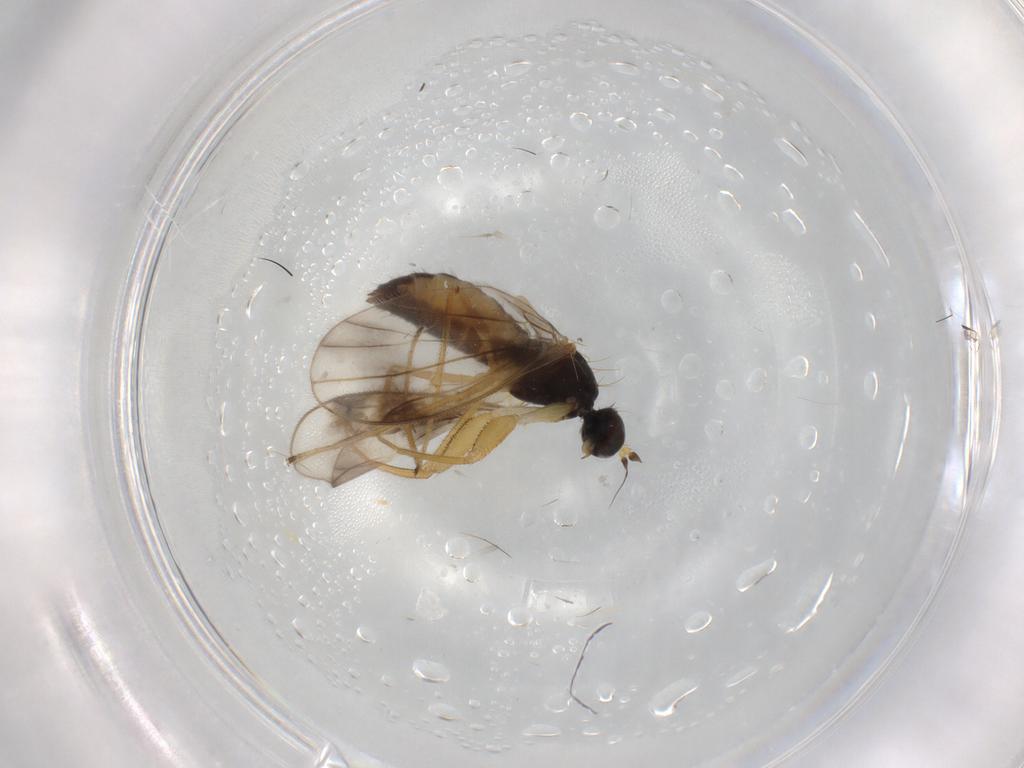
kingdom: Animalia
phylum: Arthropoda
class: Insecta
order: Diptera
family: Empididae
